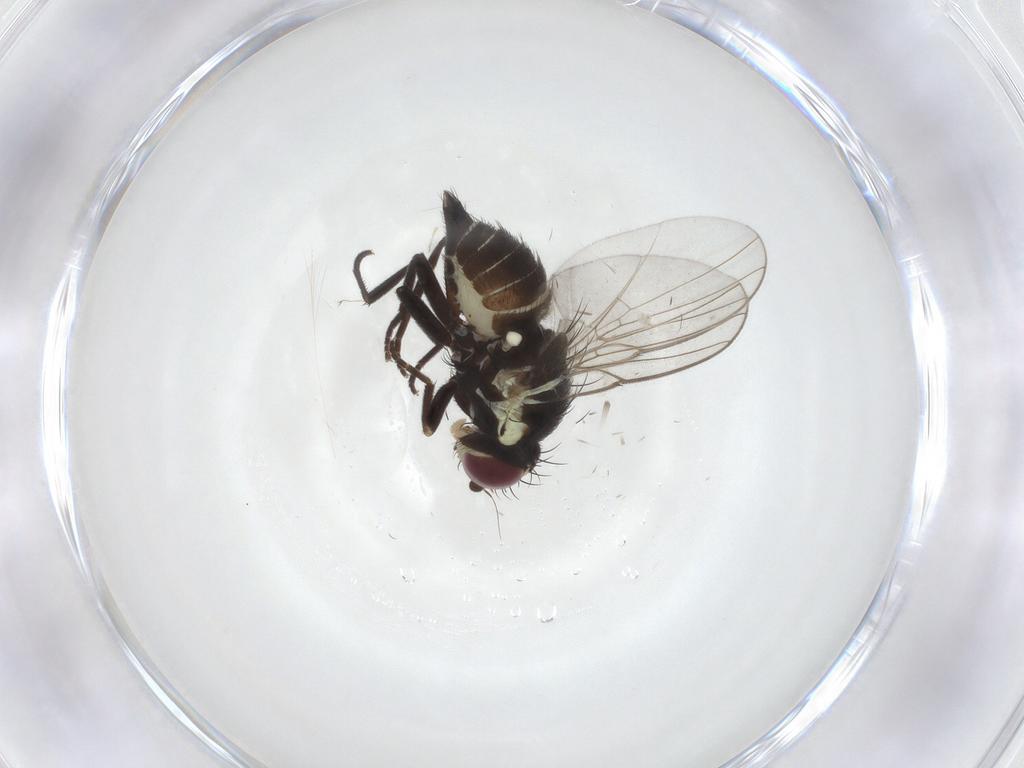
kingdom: Animalia
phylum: Arthropoda
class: Insecta
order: Diptera
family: Agromyzidae
